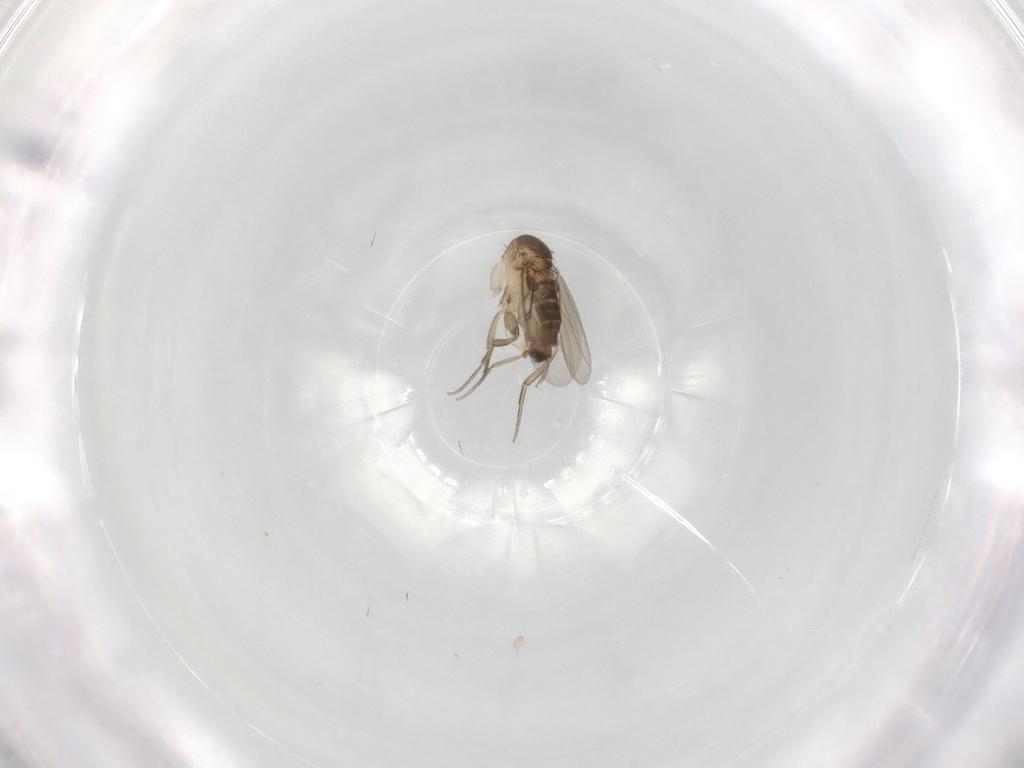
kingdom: Animalia
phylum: Arthropoda
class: Insecta
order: Diptera
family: Phoridae
